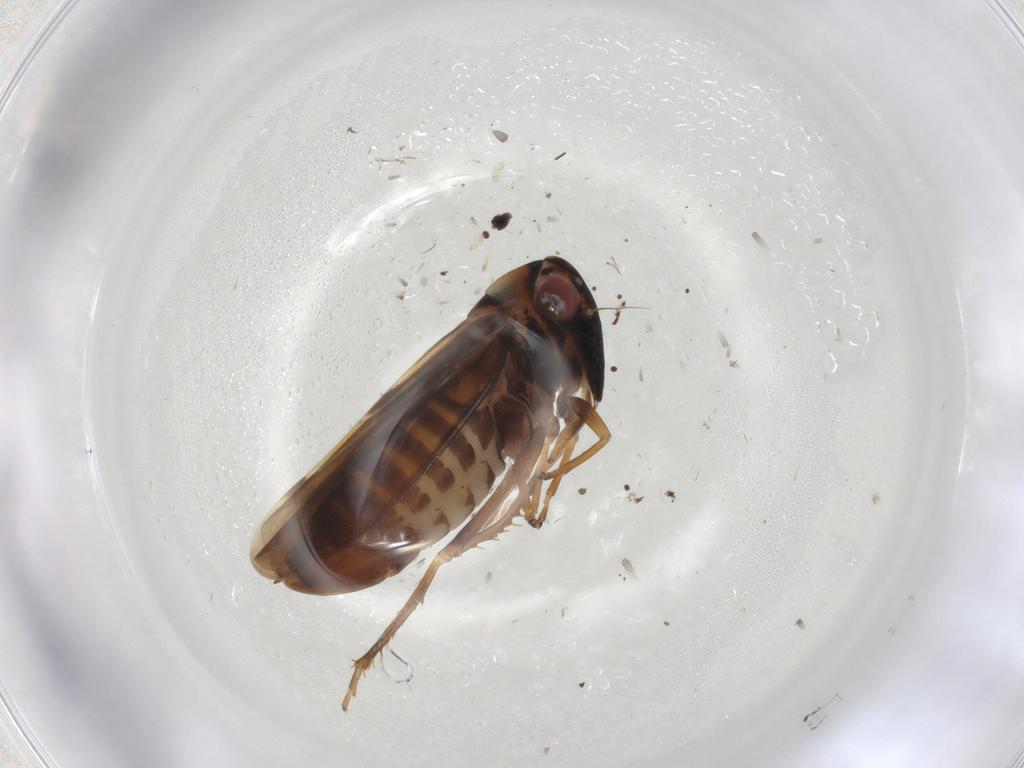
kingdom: Animalia
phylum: Arthropoda
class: Insecta
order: Hemiptera
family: Cicadellidae
